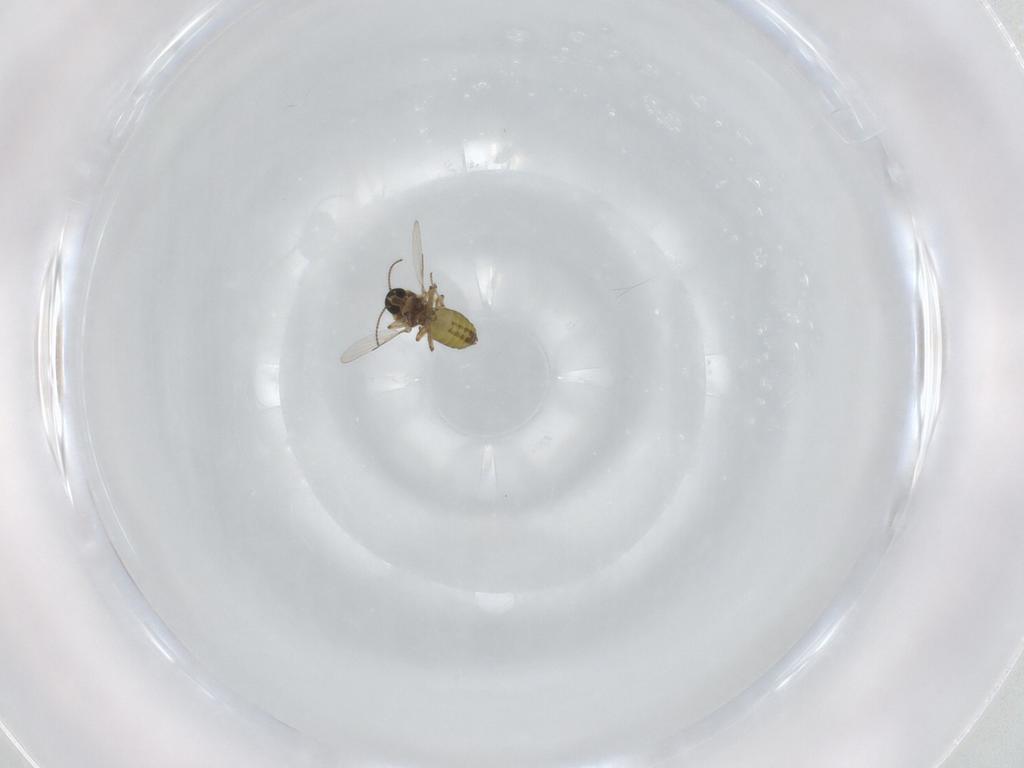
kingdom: Animalia
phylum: Arthropoda
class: Insecta
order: Diptera
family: Ceratopogonidae
